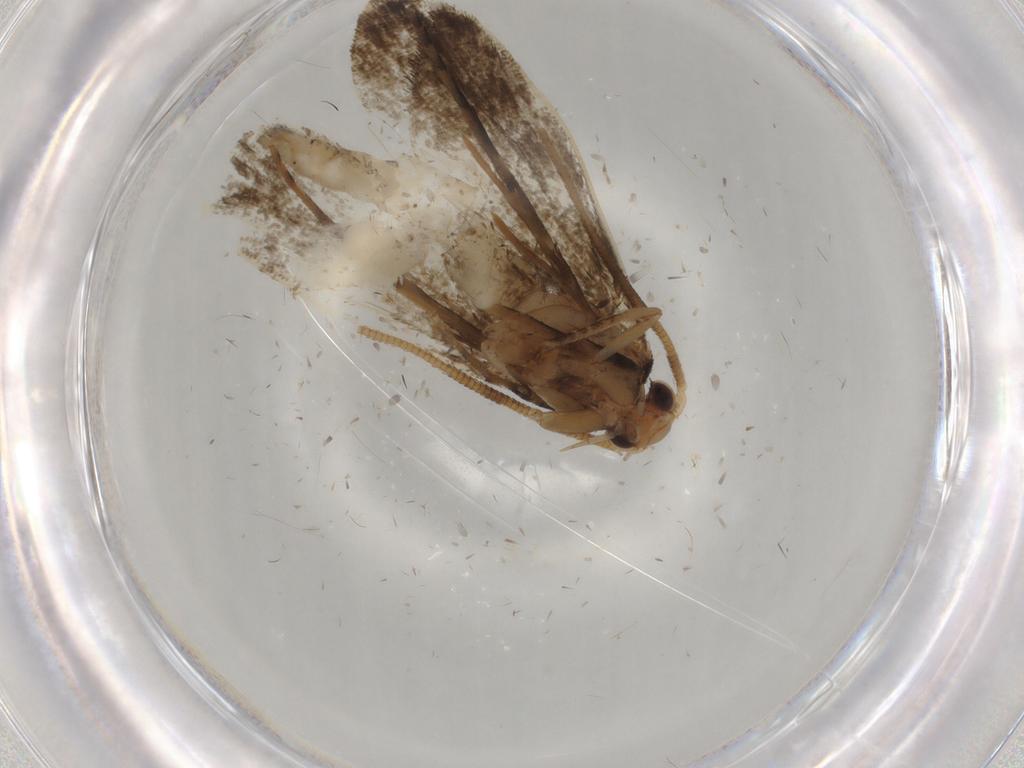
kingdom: Animalia
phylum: Arthropoda
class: Insecta
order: Lepidoptera
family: Tineidae
